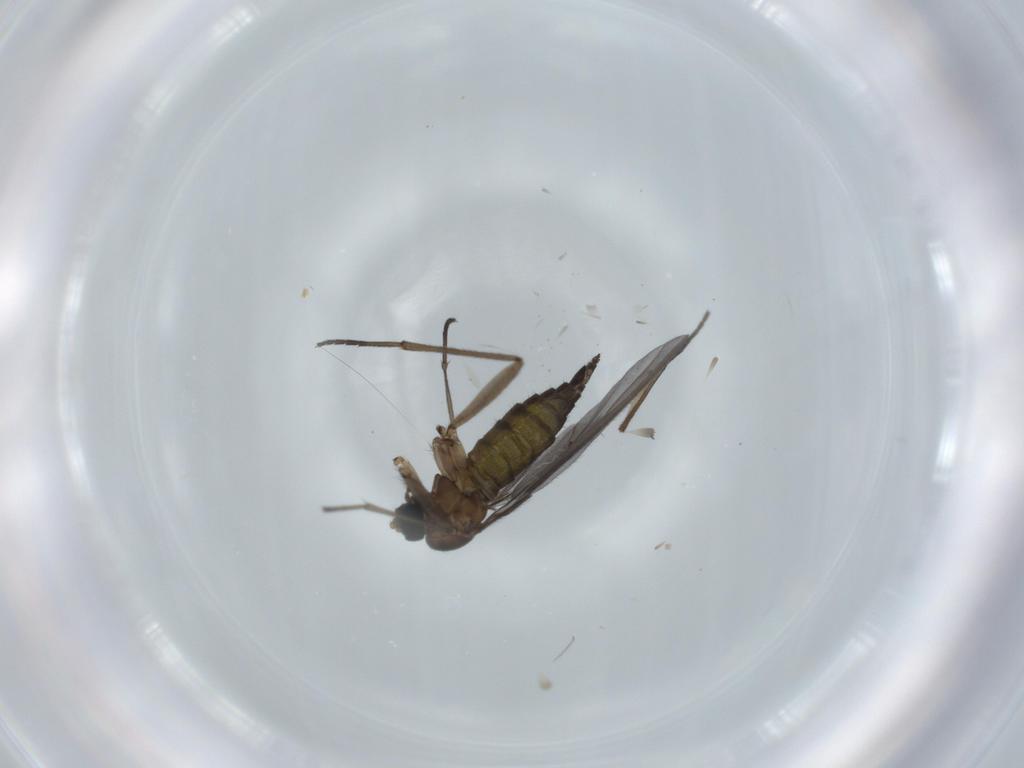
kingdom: Animalia
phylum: Arthropoda
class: Insecta
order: Diptera
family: Sciaridae
